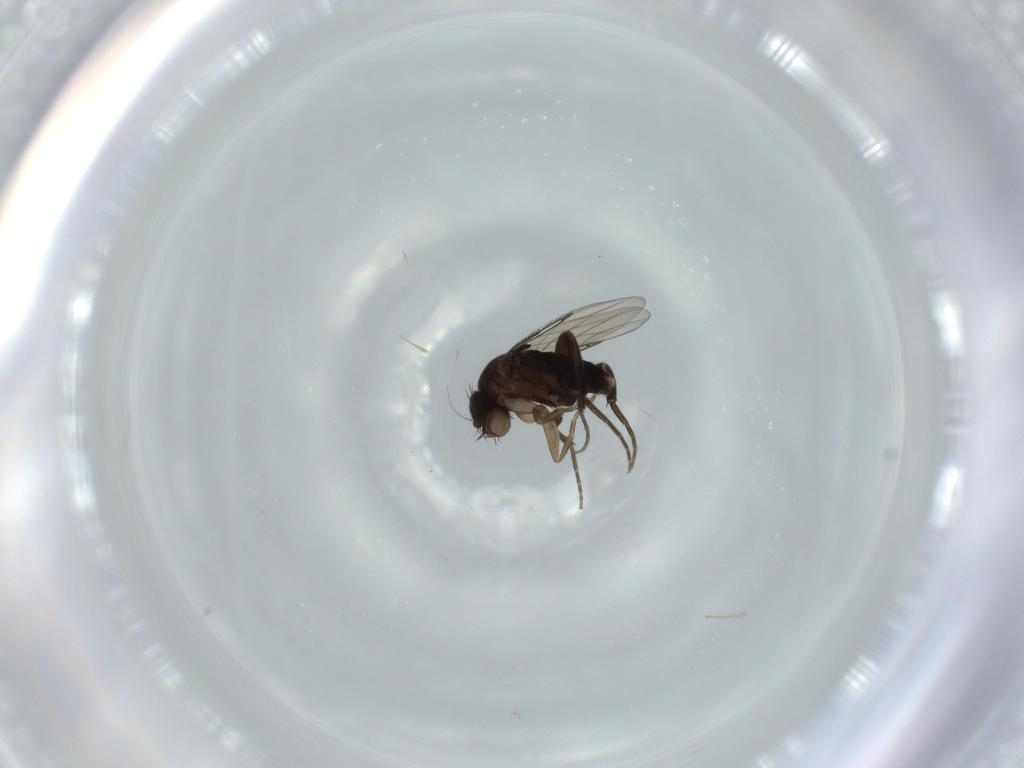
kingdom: Animalia
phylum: Arthropoda
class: Insecta
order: Diptera
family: Phoridae
